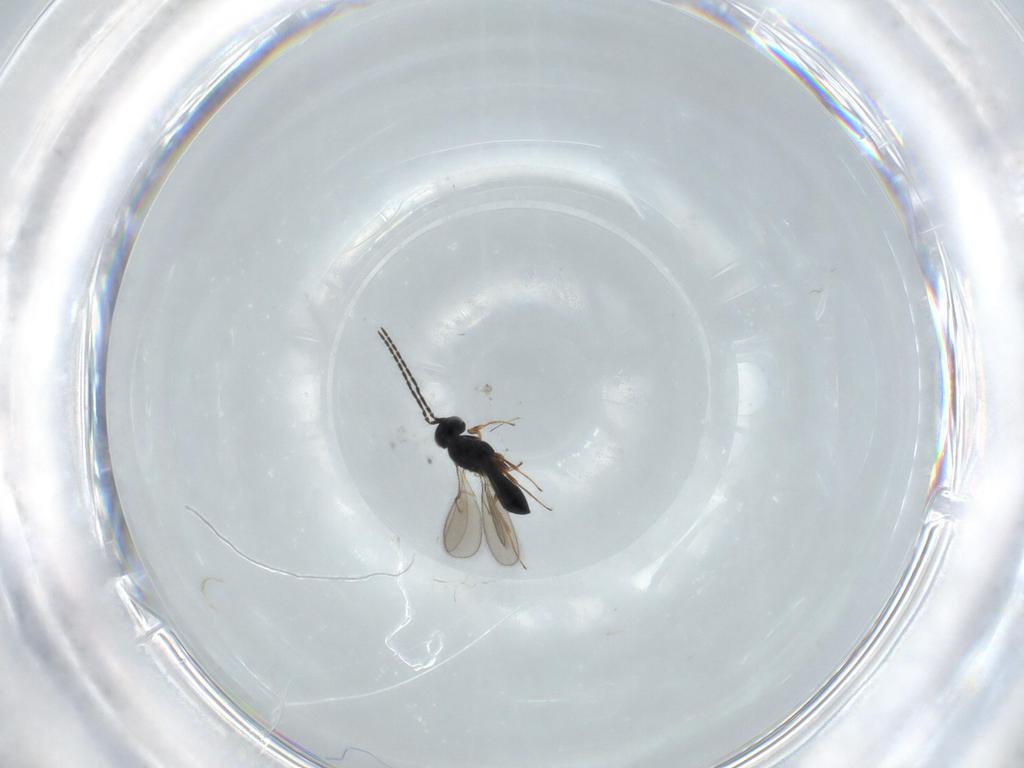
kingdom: Animalia
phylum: Arthropoda
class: Insecta
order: Hymenoptera
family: Scelionidae
